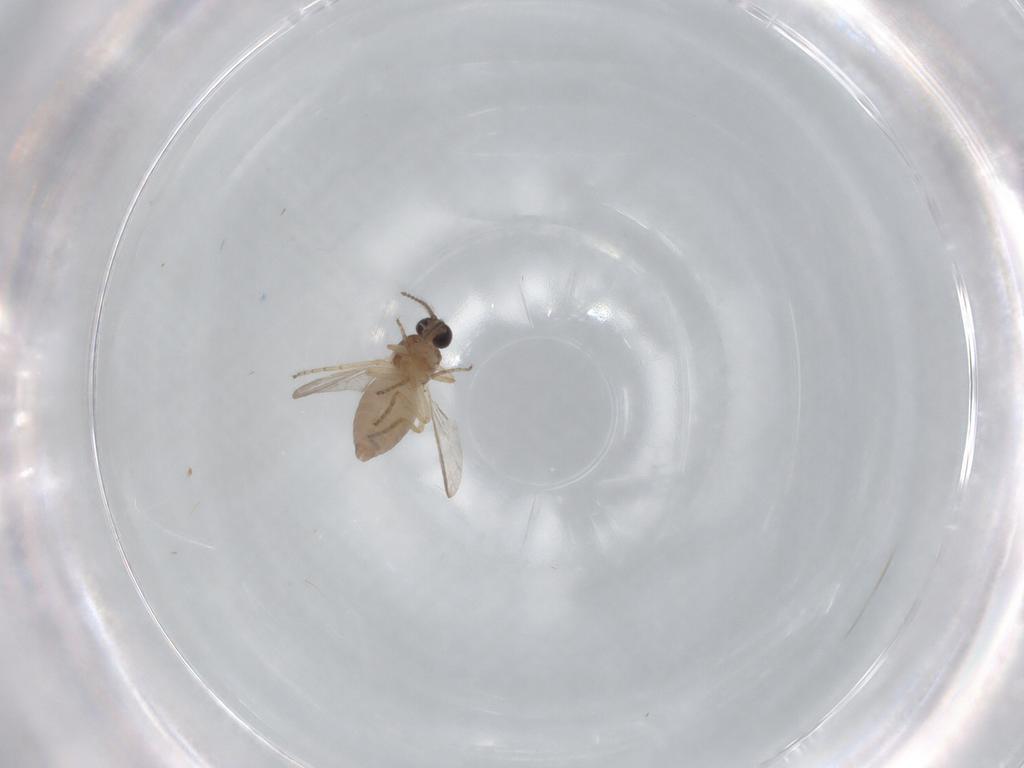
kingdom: Animalia
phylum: Arthropoda
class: Insecta
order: Diptera
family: Ceratopogonidae
